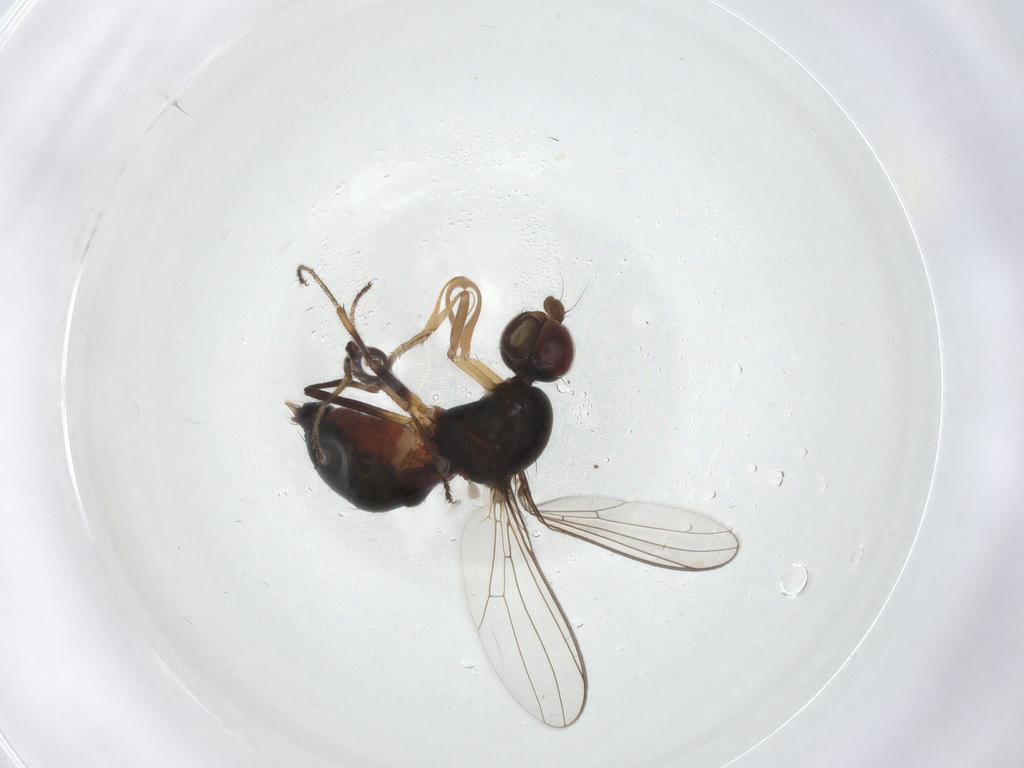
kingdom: Animalia
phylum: Arthropoda
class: Insecta
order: Diptera
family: Sepsidae
